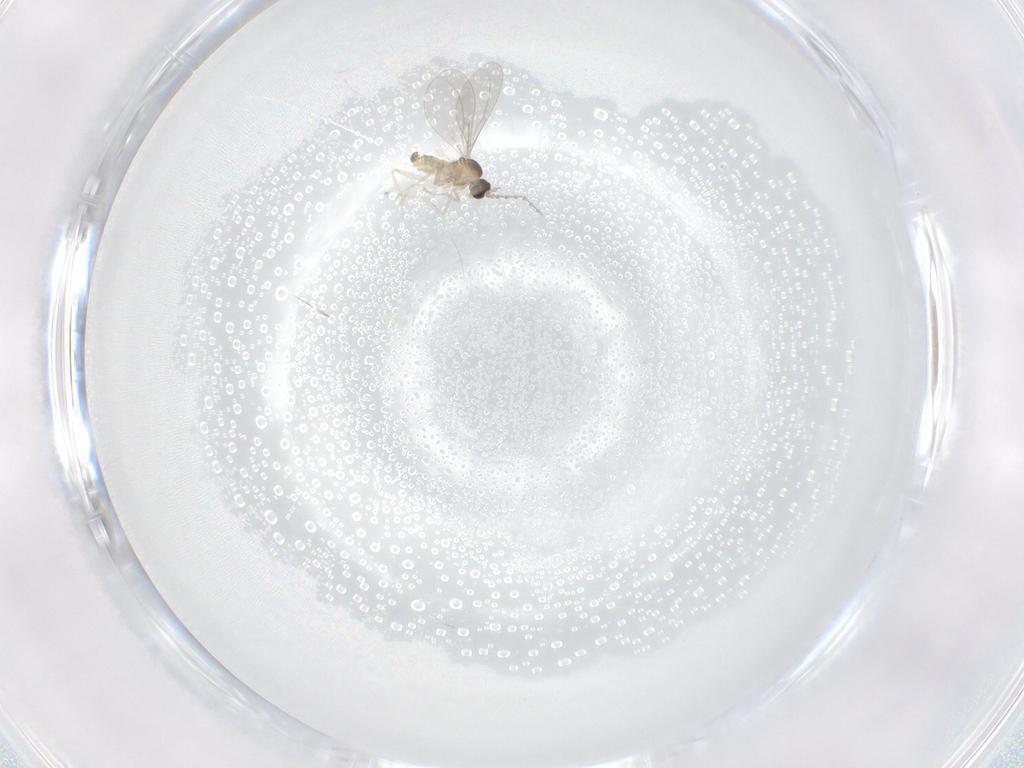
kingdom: Animalia
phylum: Arthropoda
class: Insecta
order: Diptera
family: Cecidomyiidae
